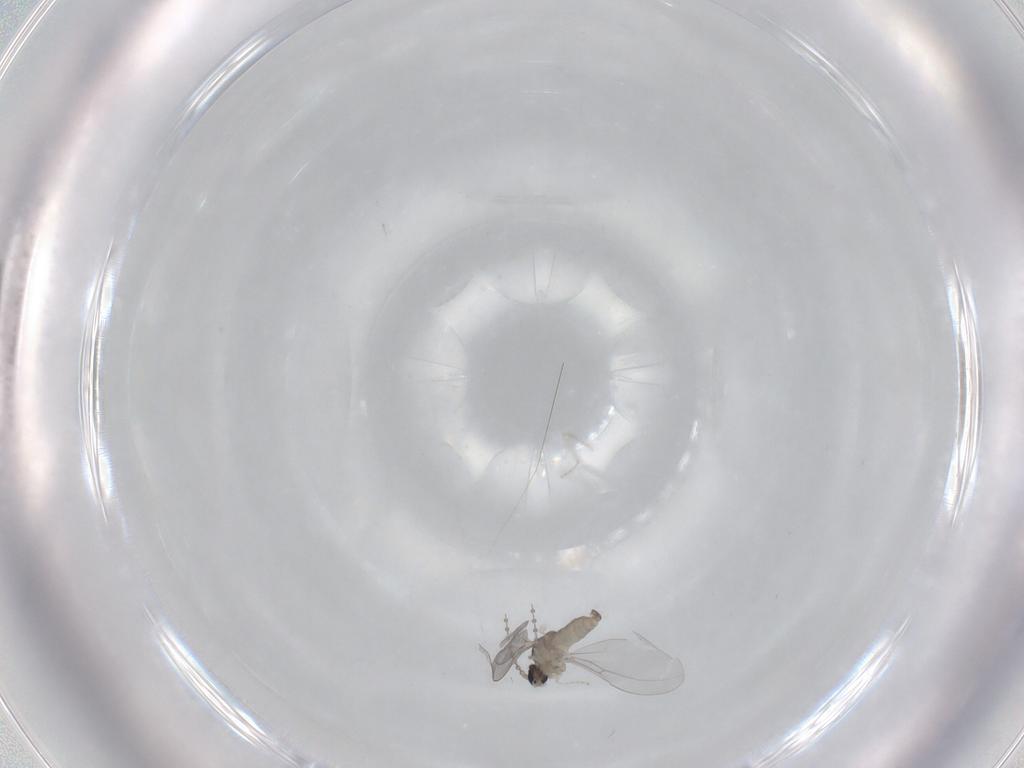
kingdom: Animalia
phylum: Arthropoda
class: Insecta
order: Diptera
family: Cecidomyiidae
